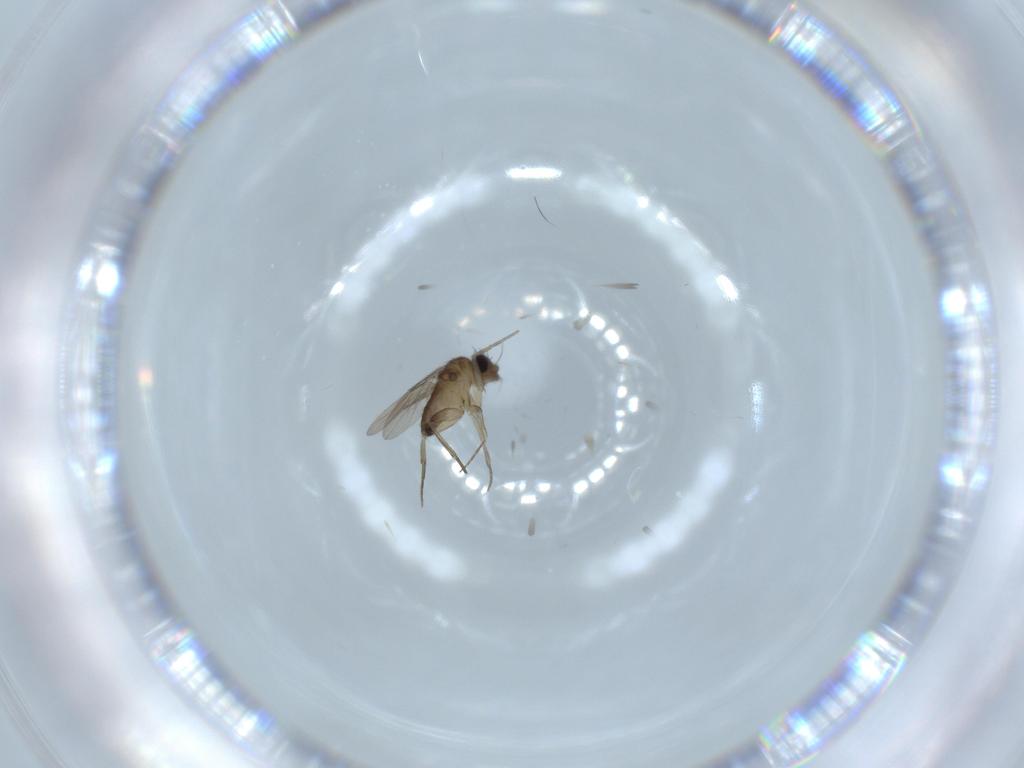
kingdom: Animalia
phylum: Arthropoda
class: Insecta
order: Diptera
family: Phoridae
